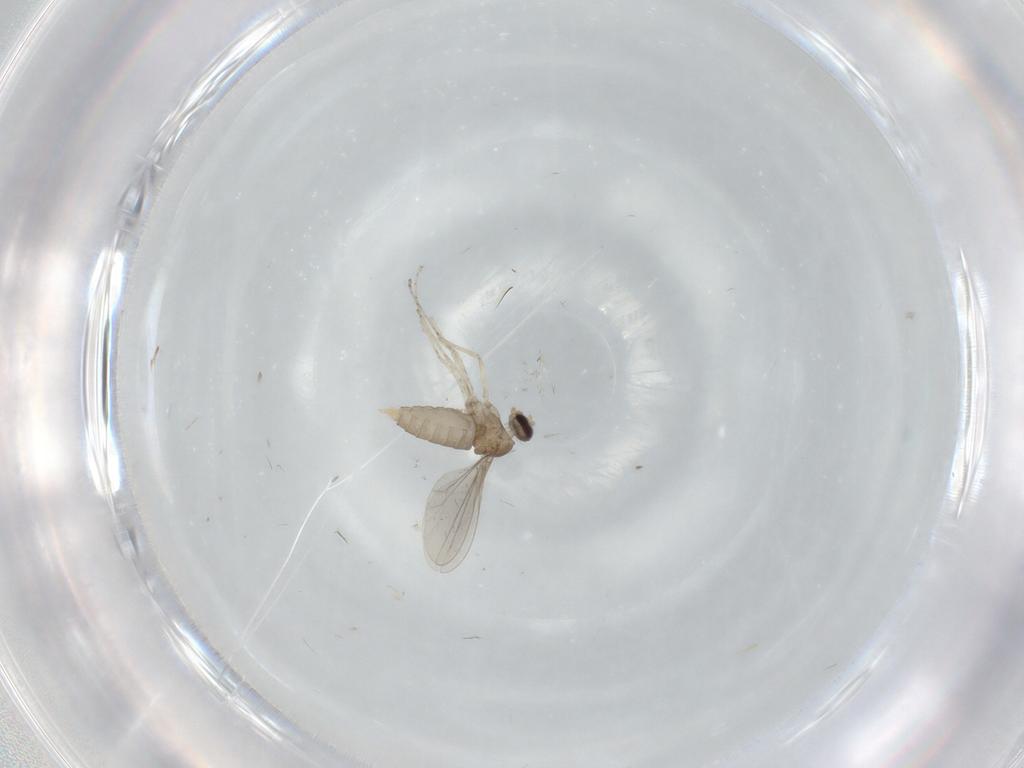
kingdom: Animalia
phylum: Arthropoda
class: Insecta
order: Diptera
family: Cecidomyiidae
